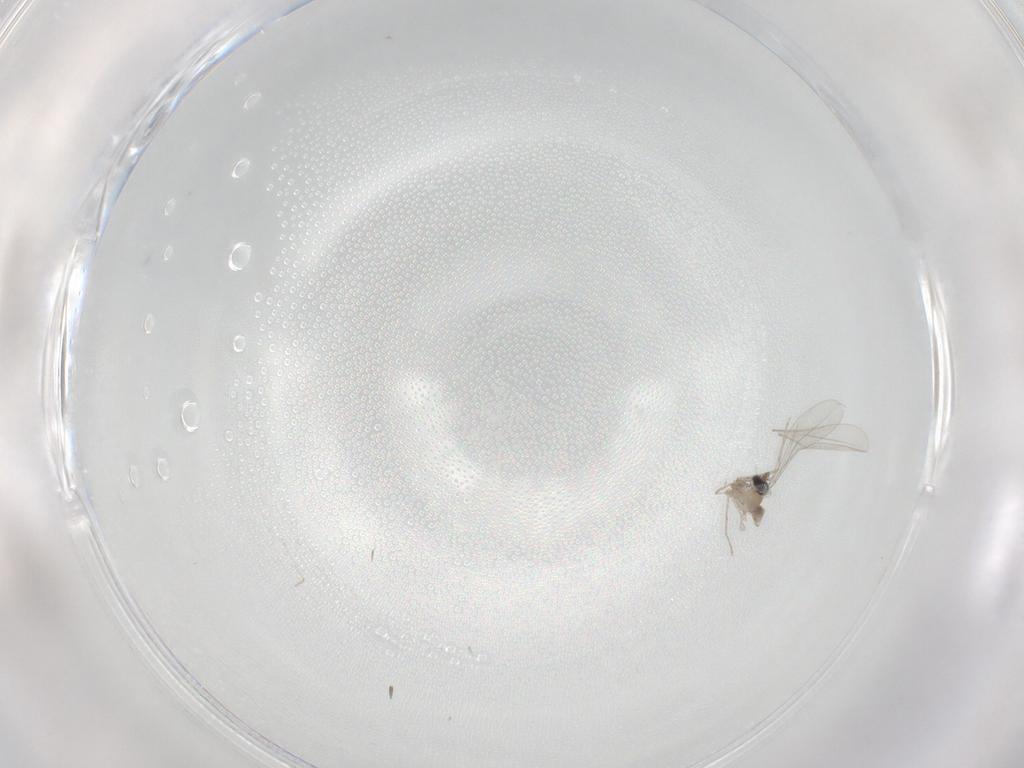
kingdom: Animalia
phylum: Arthropoda
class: Insecta
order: Diptera
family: Cecidomyiidae
